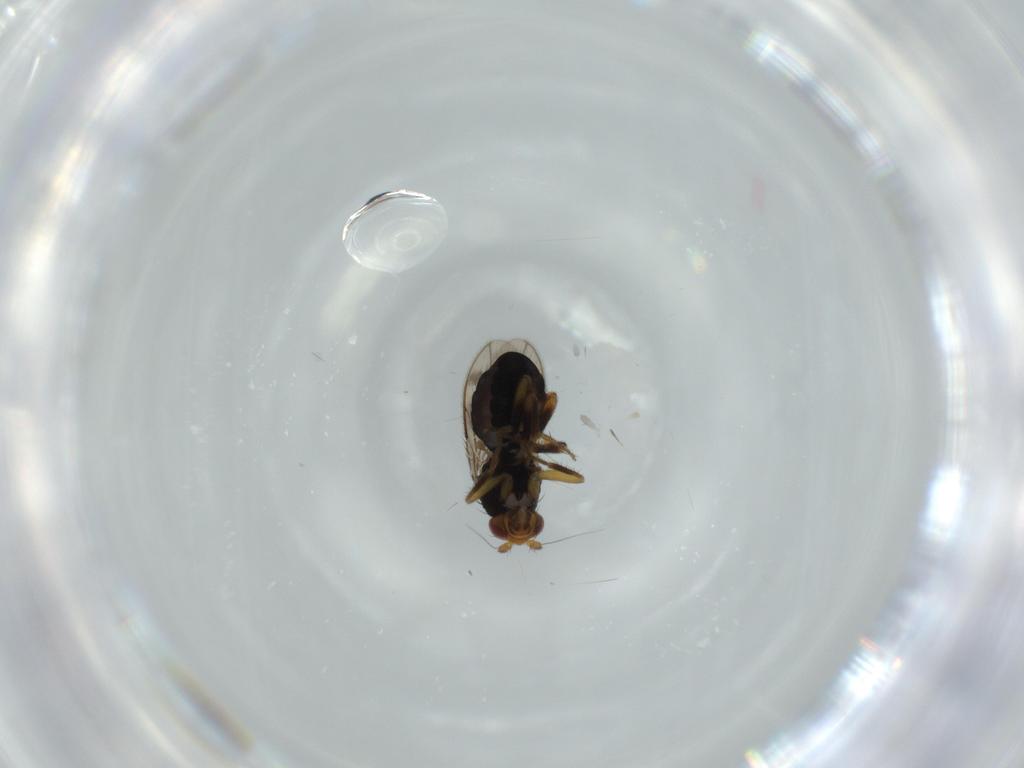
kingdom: Animalia
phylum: Arthropoda
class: Insecta
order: Diptera
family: Sphaeroceridae
